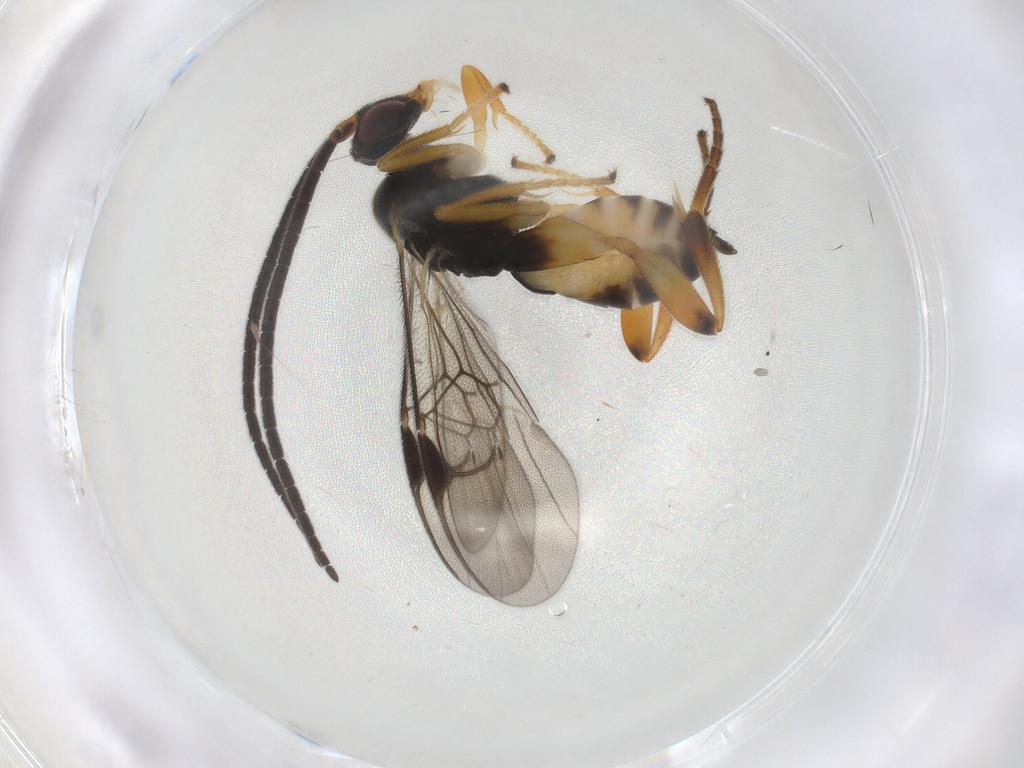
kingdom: Animalia
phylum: Arthropoda
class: Insecta
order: Hymenoptera
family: Braconidae
